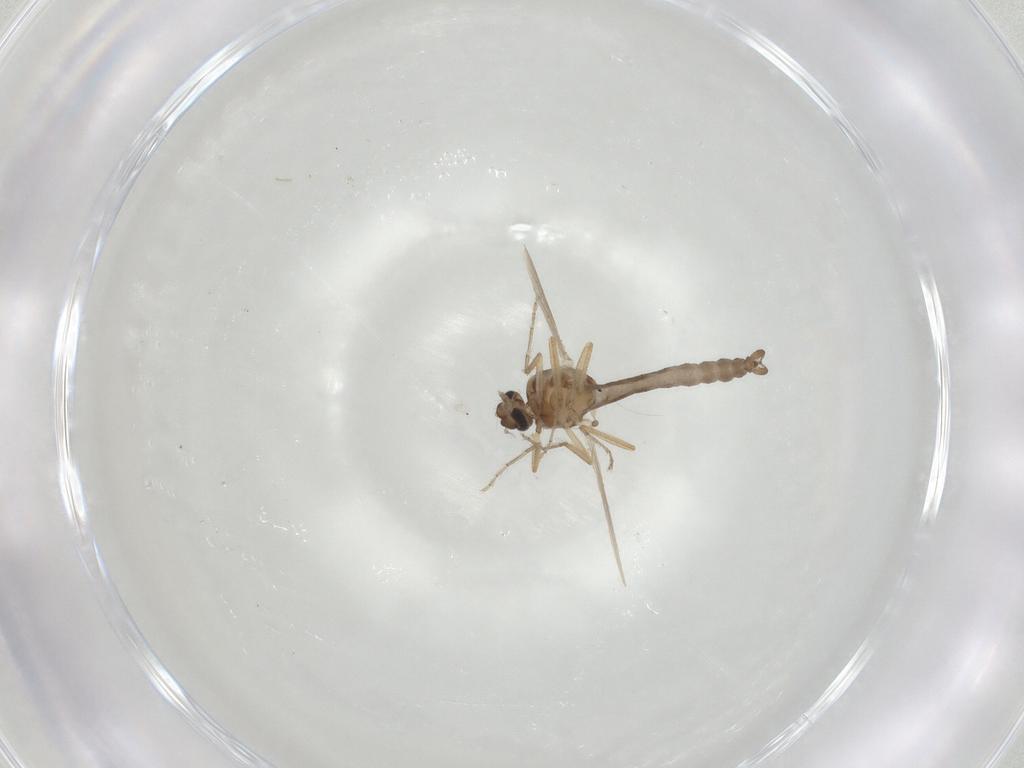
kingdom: Animalia
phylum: Arthropoda
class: Insecta
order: Diptera
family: Ceratopogonidae
